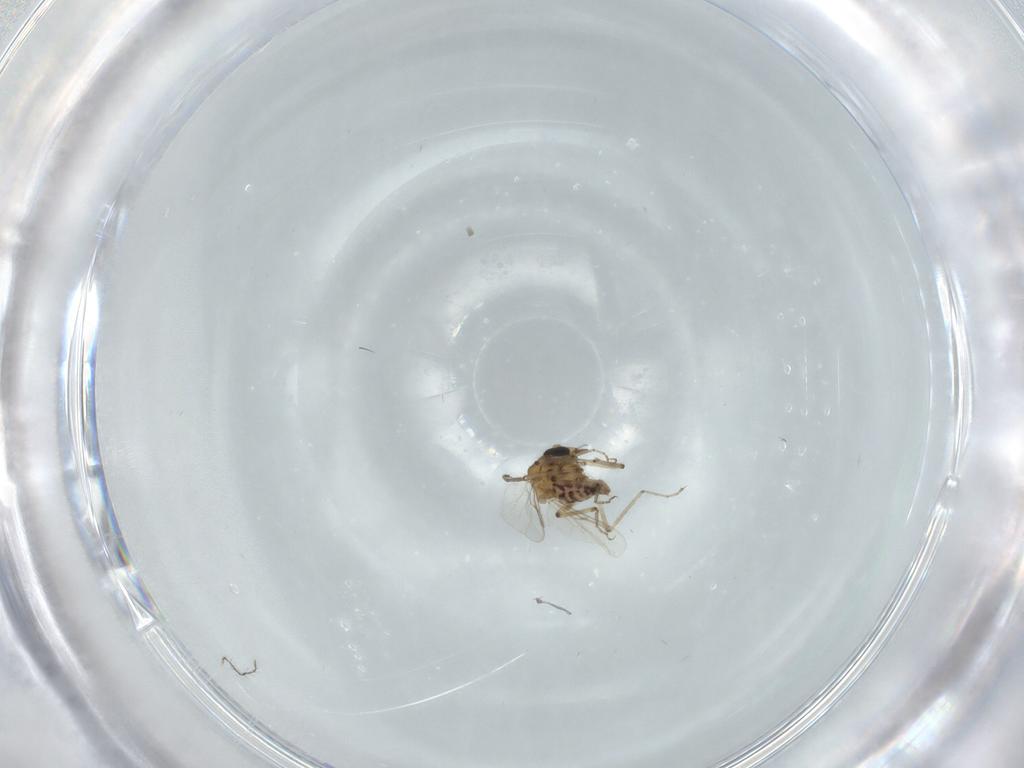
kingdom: Animalia
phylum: Arthropoda
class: Insecta
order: Diptera
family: Ceratopogonidae
